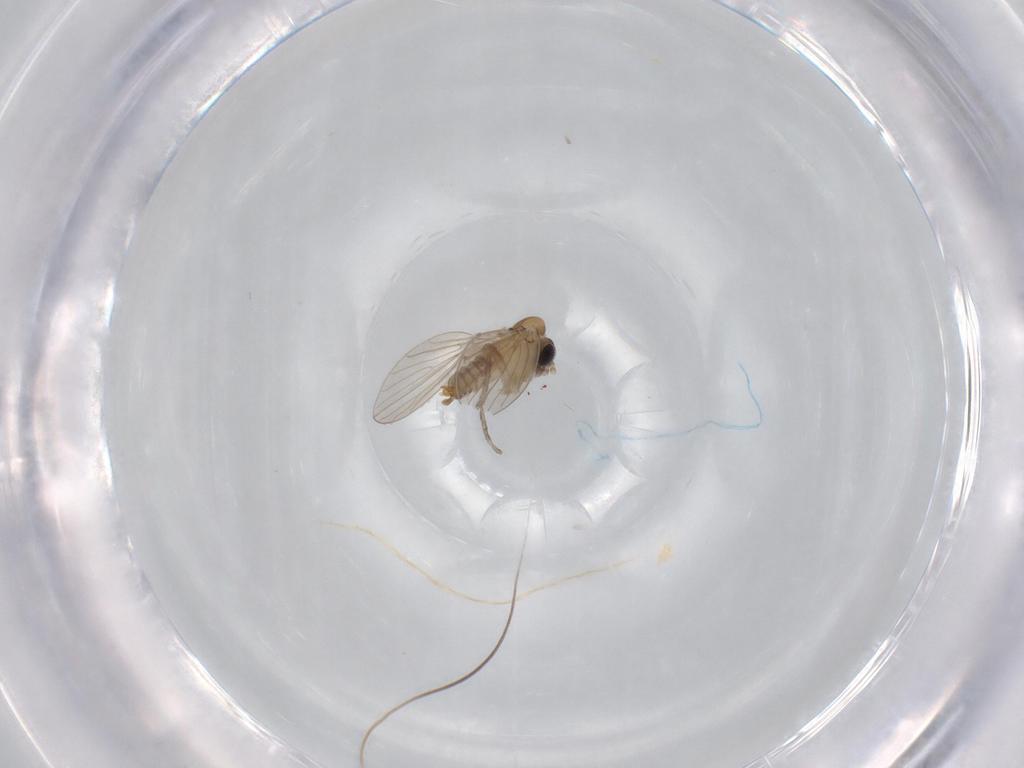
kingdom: Animalia
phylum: Arthropoda
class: Insecta
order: Diptera
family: Psychodidae
